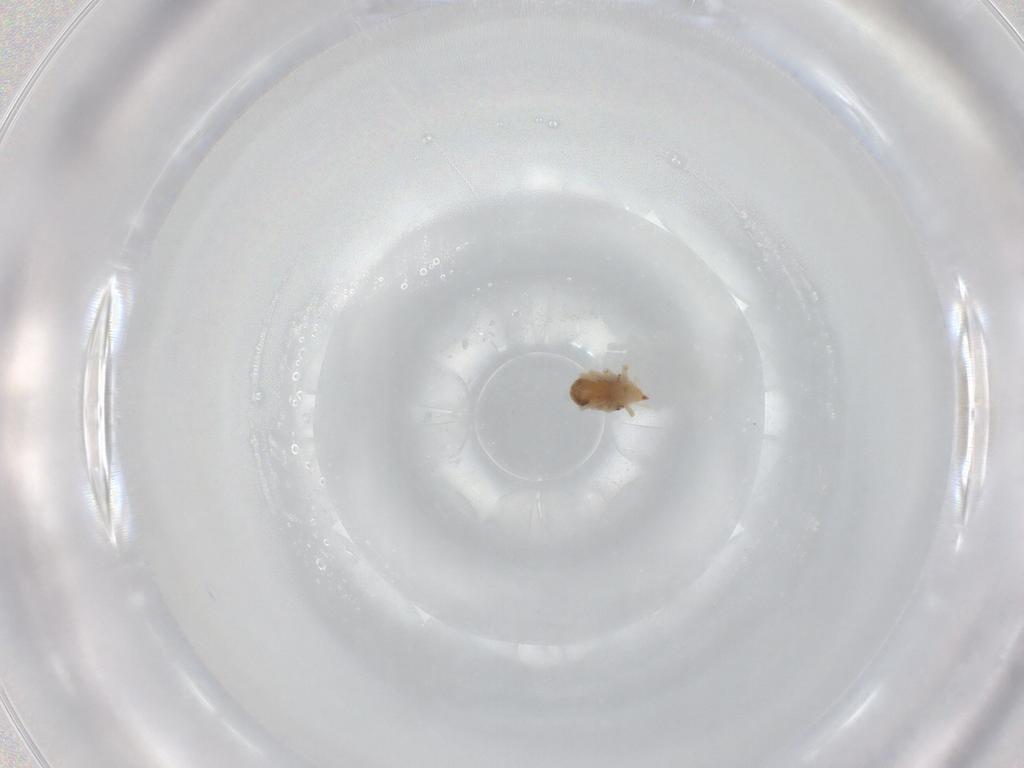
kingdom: Animalia
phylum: Arthropoda
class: Arachnida
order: Trombidiformes
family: Bdellidae
